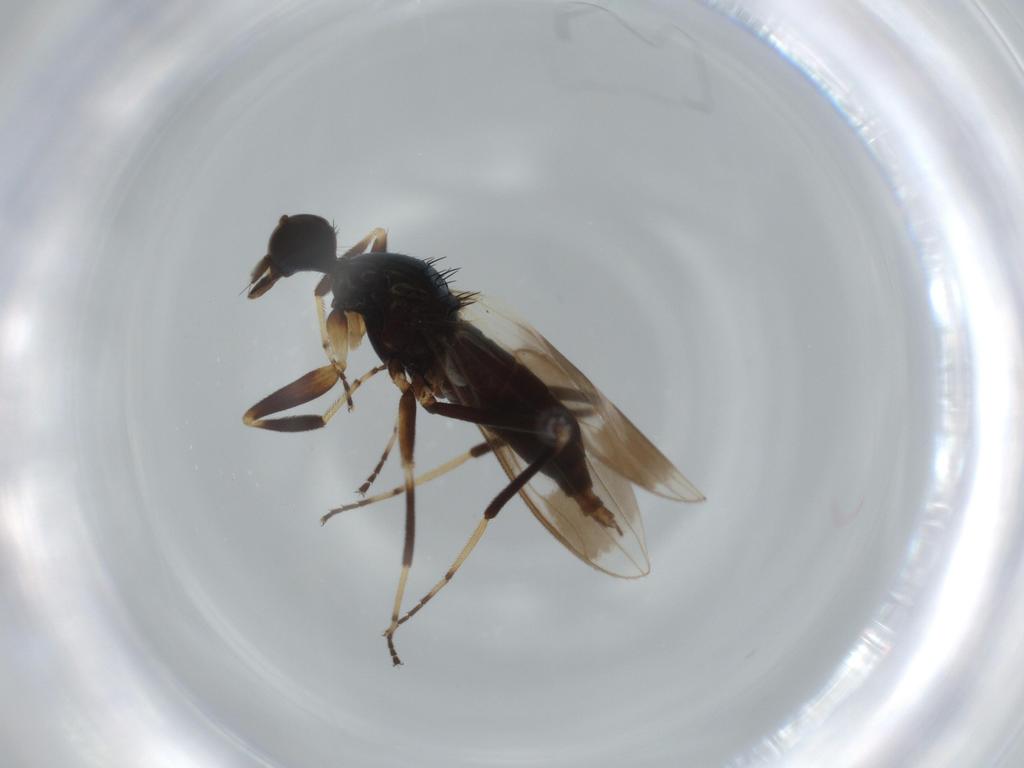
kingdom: Animalia
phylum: Arthropoda
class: Insecta
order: Diptera
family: Hybotidae
